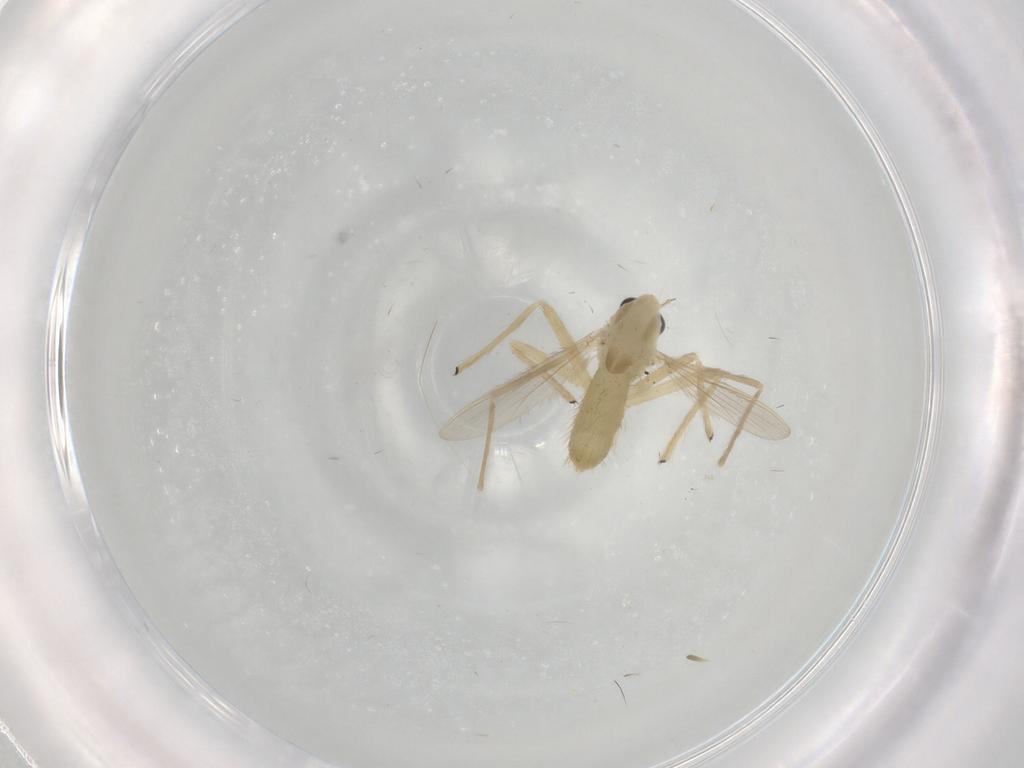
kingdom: Animalia
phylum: Arthropoda
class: Insecta
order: Diptera
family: Chironomidae
